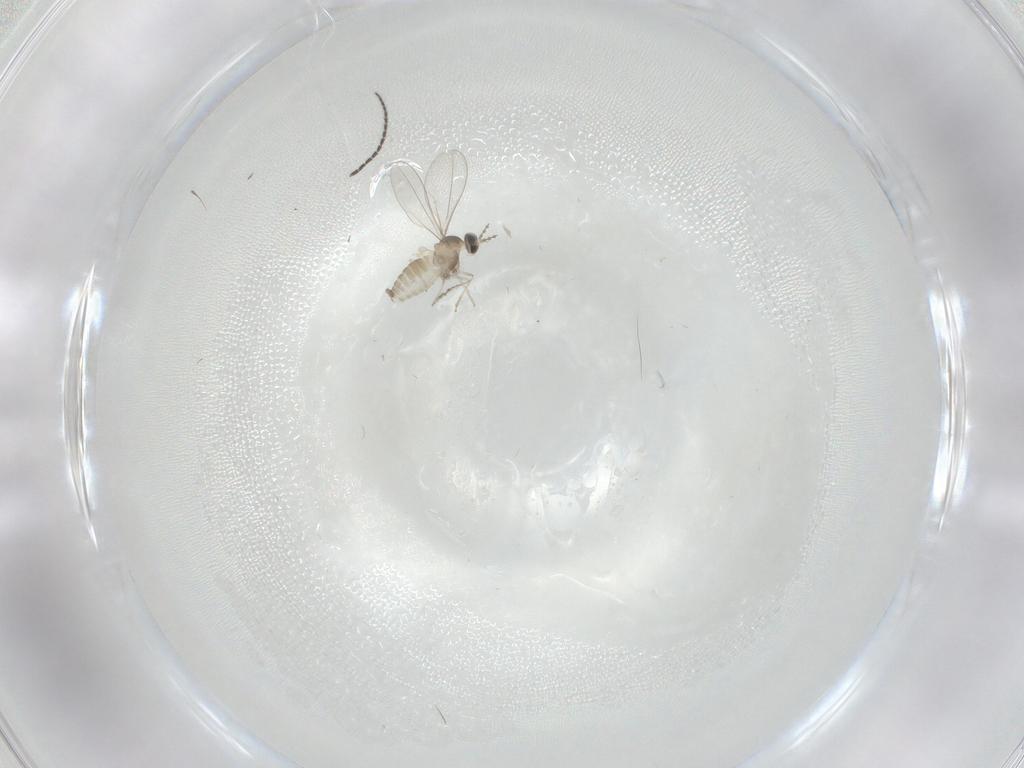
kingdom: Animalia
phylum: Arthropoda
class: Insecta
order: Diptera
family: Cecidomyiidae
